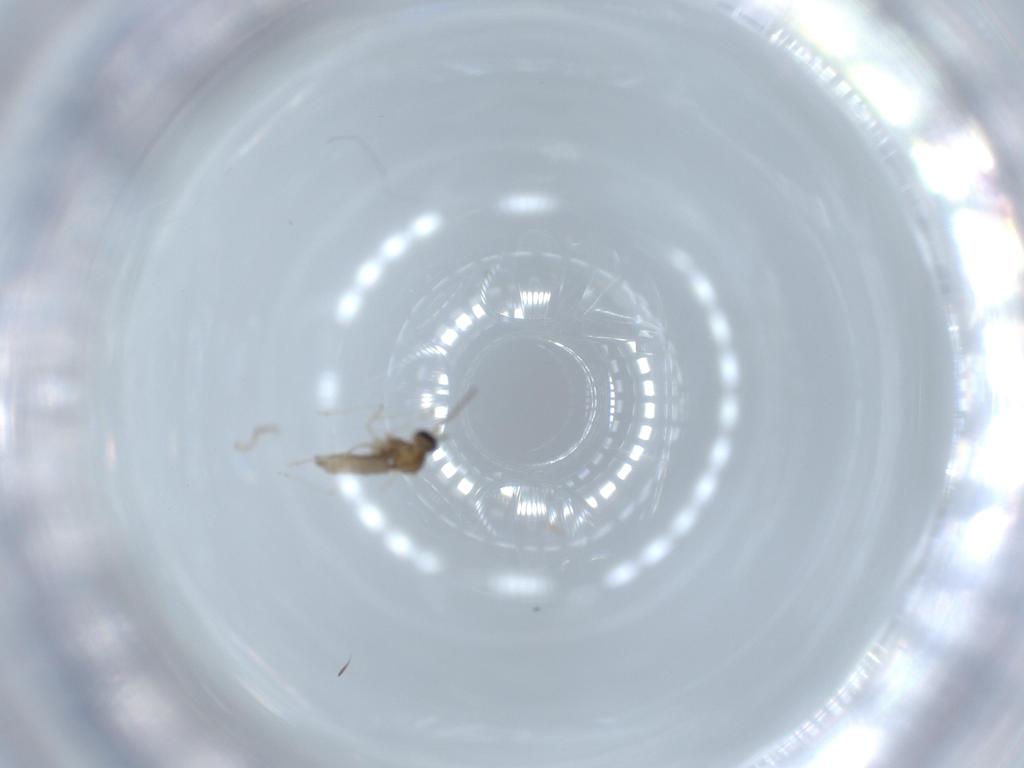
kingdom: Animalia
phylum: Arthropoda
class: Insecta
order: Diptera
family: Cecidomyiidae
